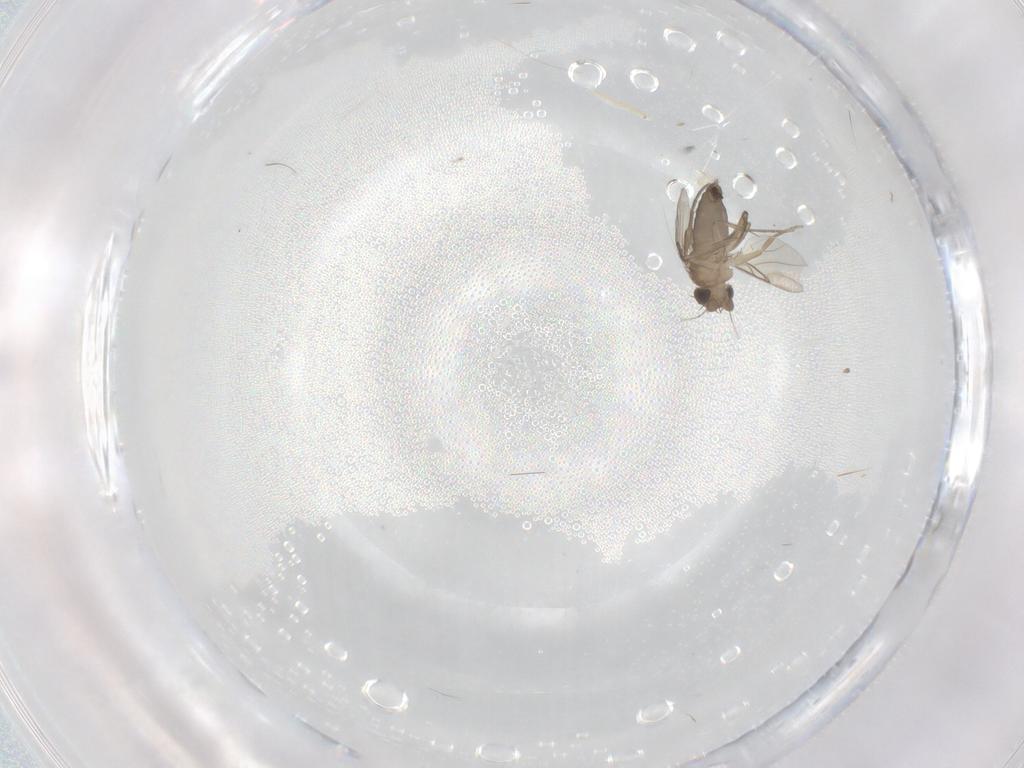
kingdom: Animalia
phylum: Arthropoda
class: Insecta
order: Diptera
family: Phoridae
